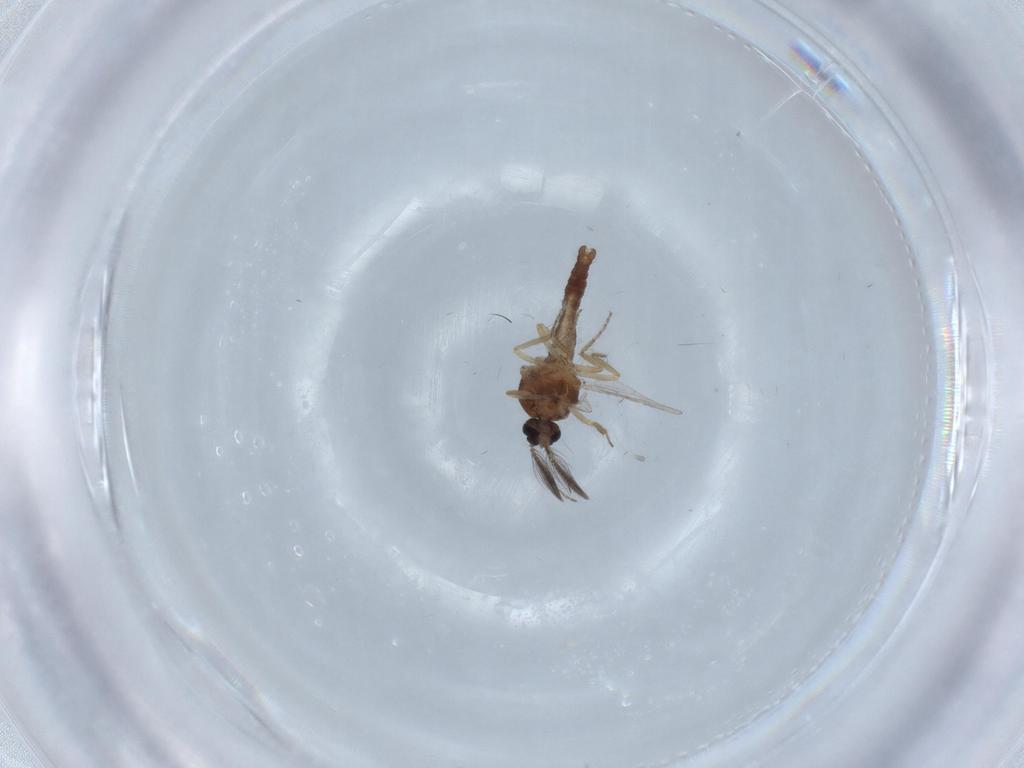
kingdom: Animalia
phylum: Arthropoda
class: Insecta
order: Diptera
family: Ceratopogonidae
